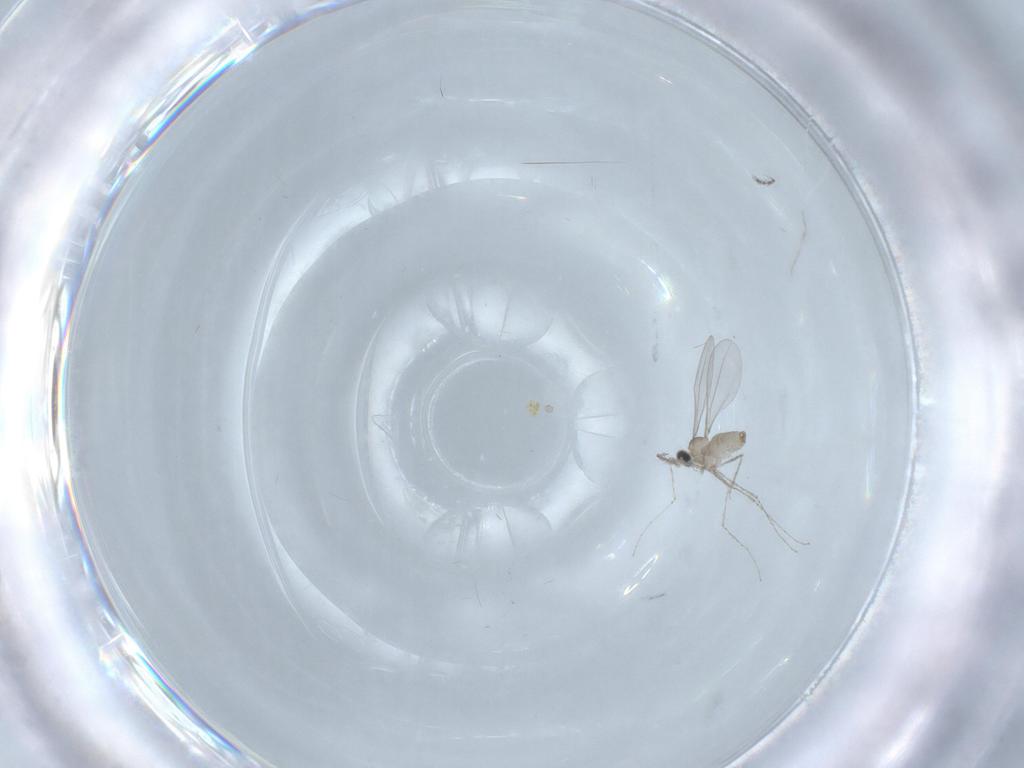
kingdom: Animalia
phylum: Arthropoda
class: Insecta
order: Diptera
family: Cecidomyiidae
